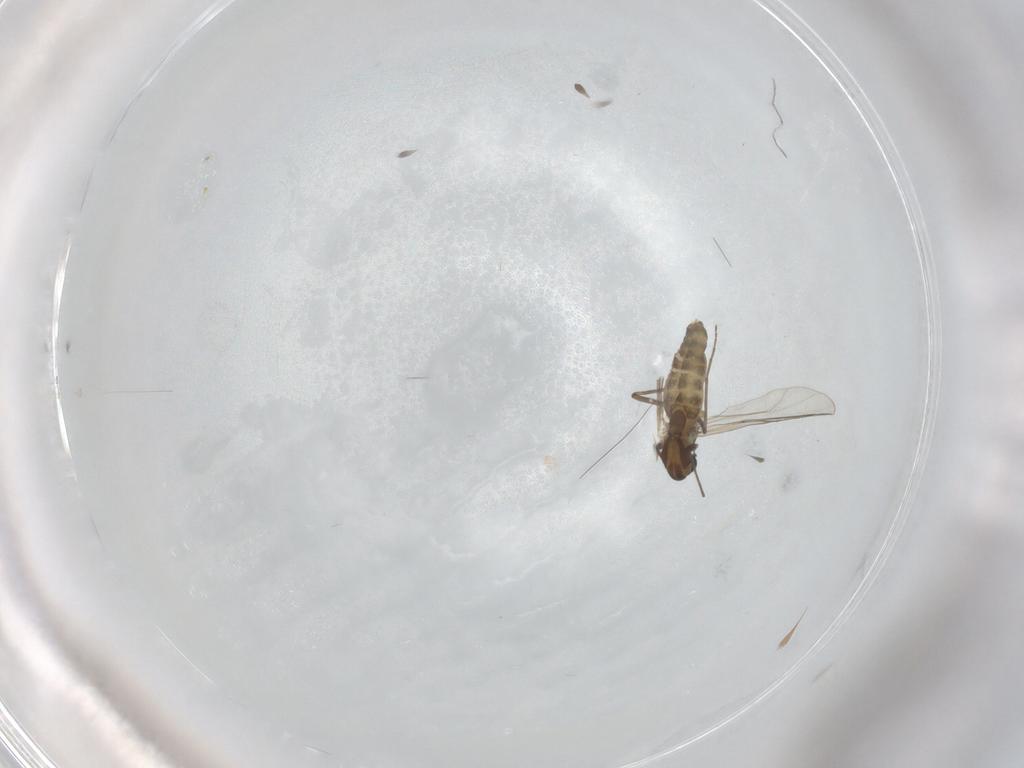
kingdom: Animalia
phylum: Arthropoda
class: Insecta
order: Diptera
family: Chironomidae
